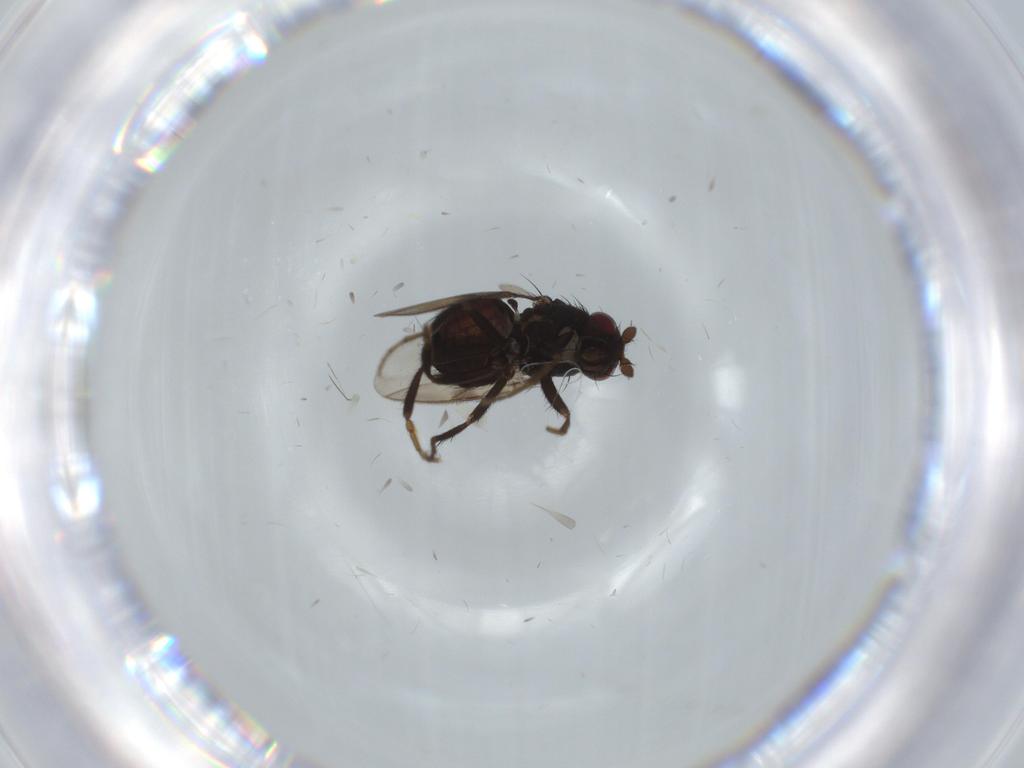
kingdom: Animalia
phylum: Arthropoda
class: Insecta
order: Diptera
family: Sphaeroceridae
